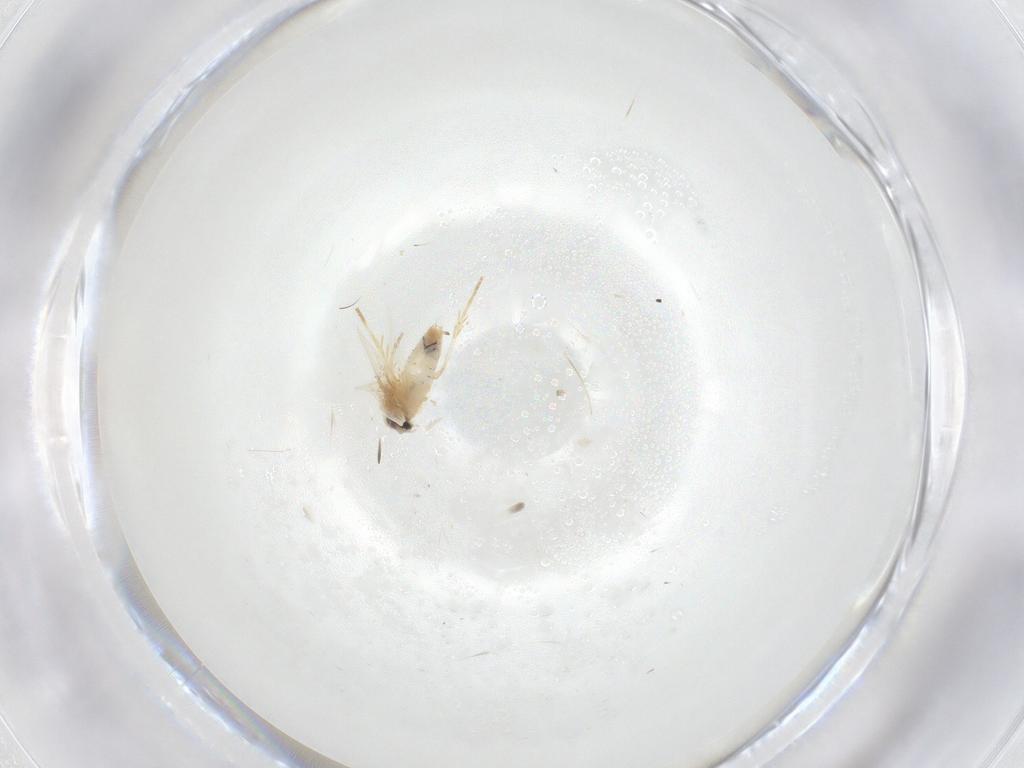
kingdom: Animalia
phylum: Arthropoda
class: Insecta
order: Lepidoptera
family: Nepticulidae
